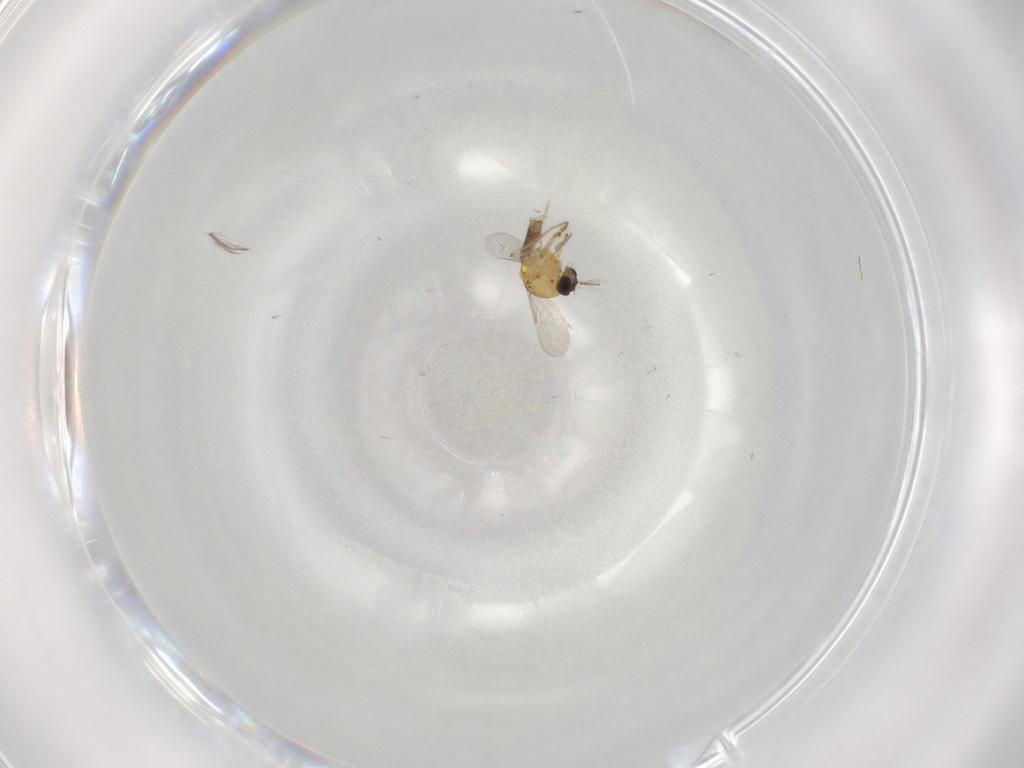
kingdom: Animalia
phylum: Arthropoda
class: Insecta
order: Diptera
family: Ceratopogonidae
